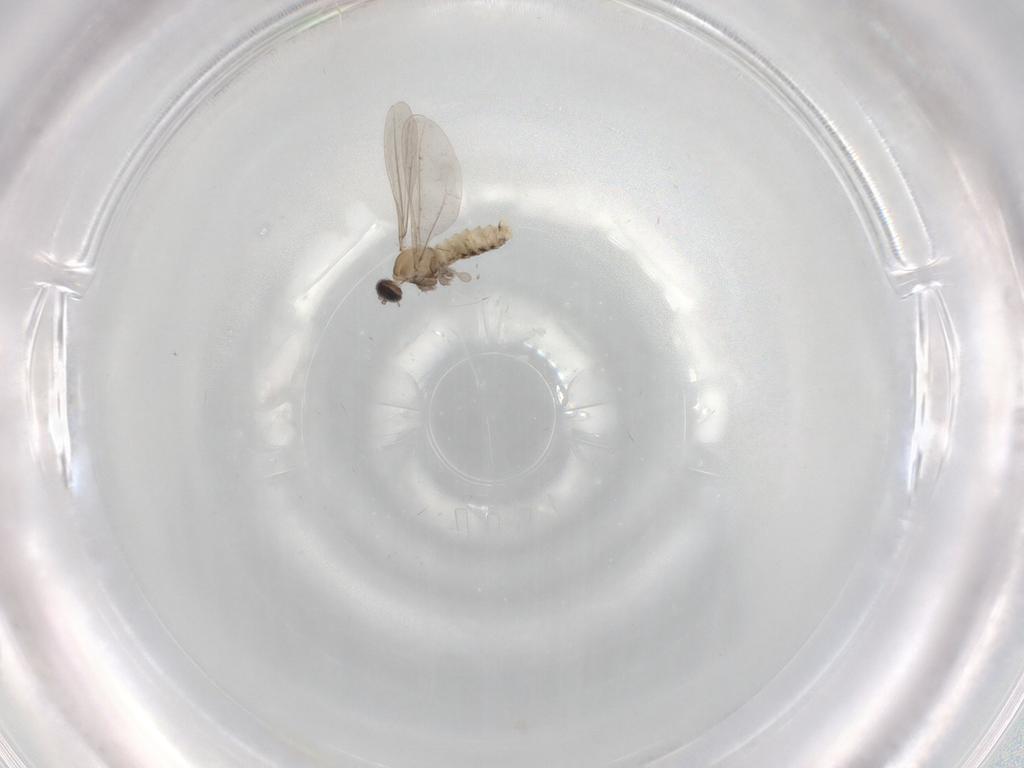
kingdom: Animalia
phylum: Arthropoda
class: Insecta
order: Diptera
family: Cecidomyiidae
